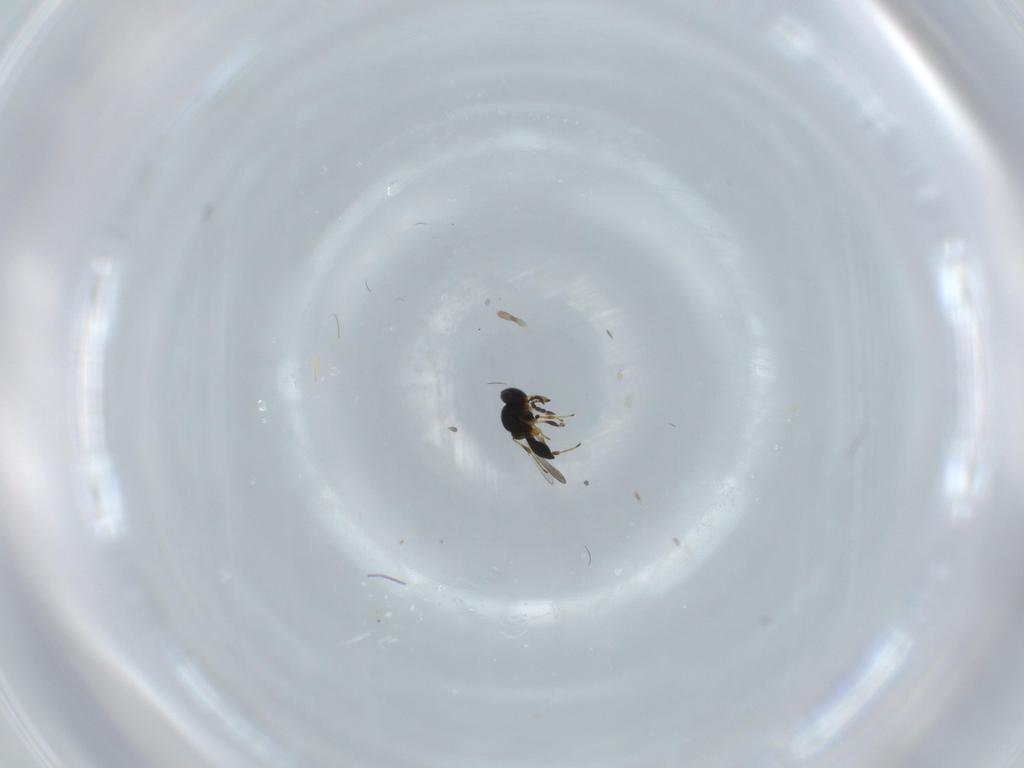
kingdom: Animalia
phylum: Arthropoda
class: Insecta
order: Hymenoptera
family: Platygastridae
